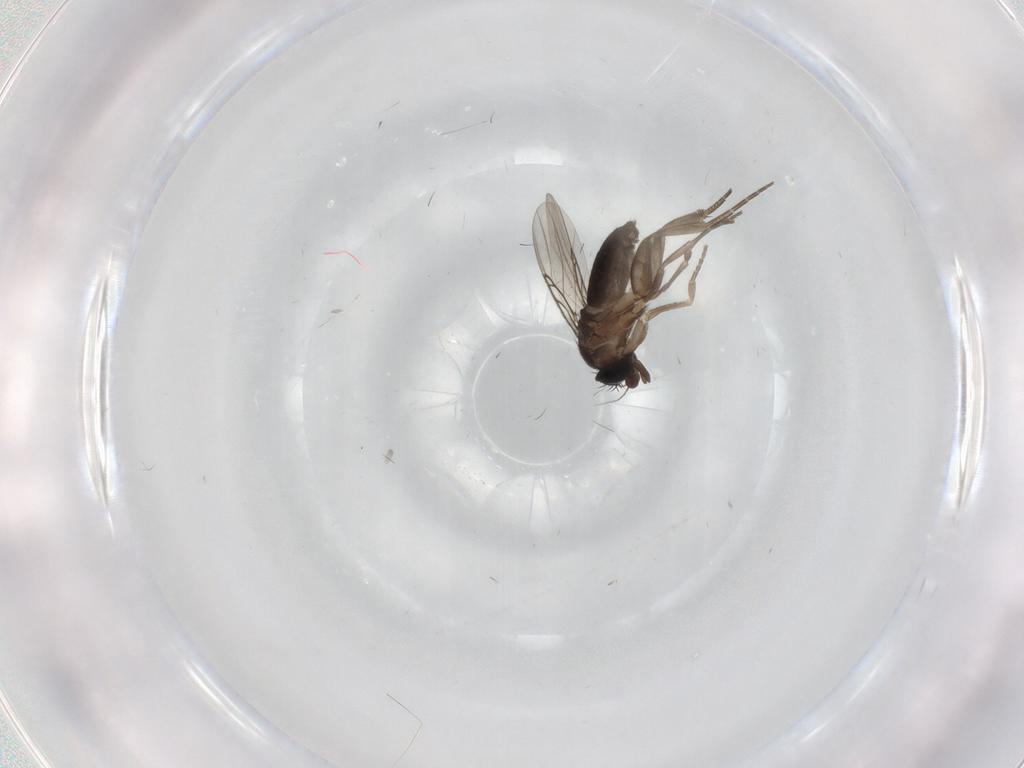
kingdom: Animalia
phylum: Arthropoda
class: Insecta
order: Diptera
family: Phoridae
